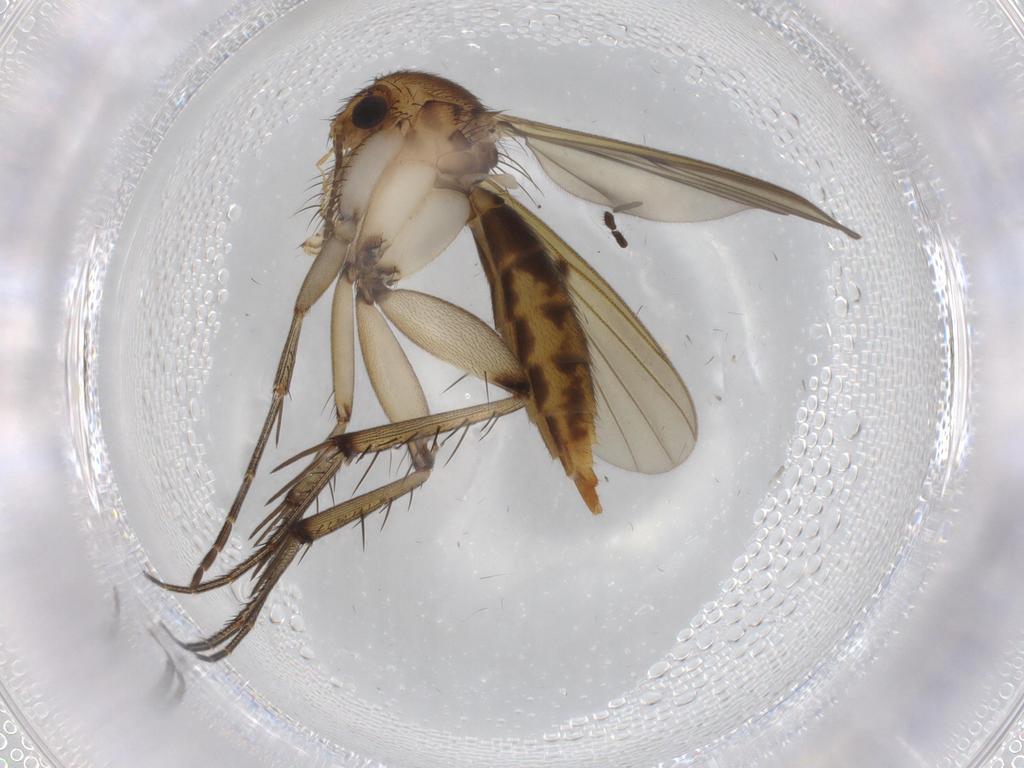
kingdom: Animalia
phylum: Arthropoda
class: Insecta
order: Diptera
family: Mycetophilidae
